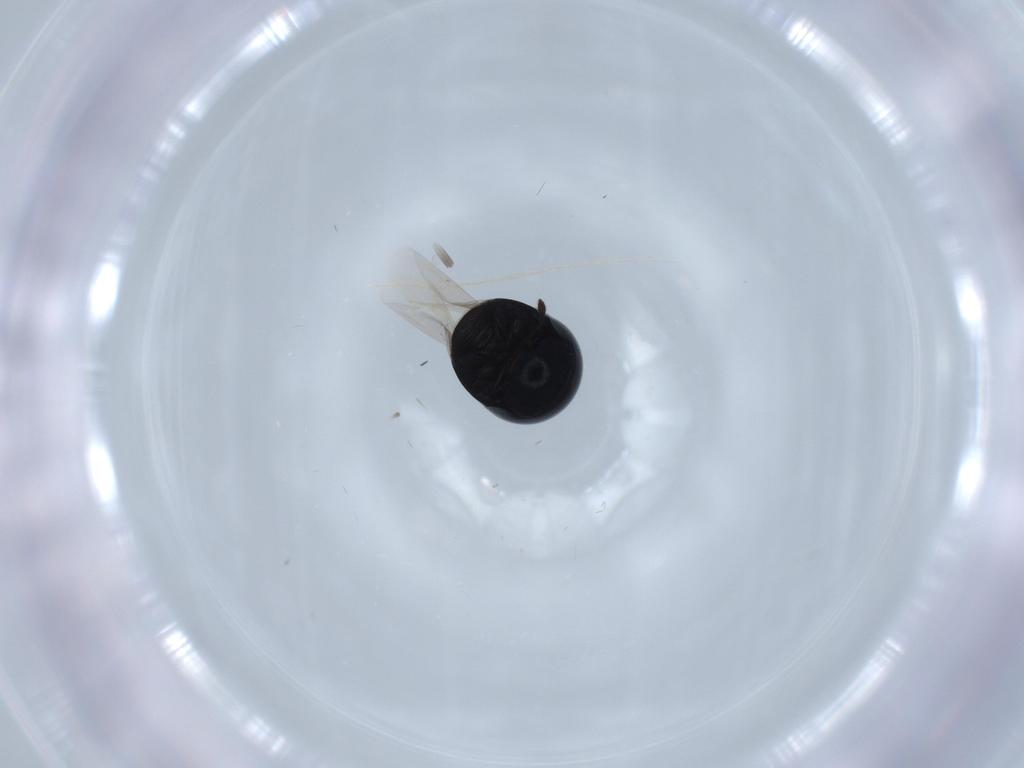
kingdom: Animalia
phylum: Arthropoda
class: Insecta
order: Coleoptera
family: Cybocephalidae
